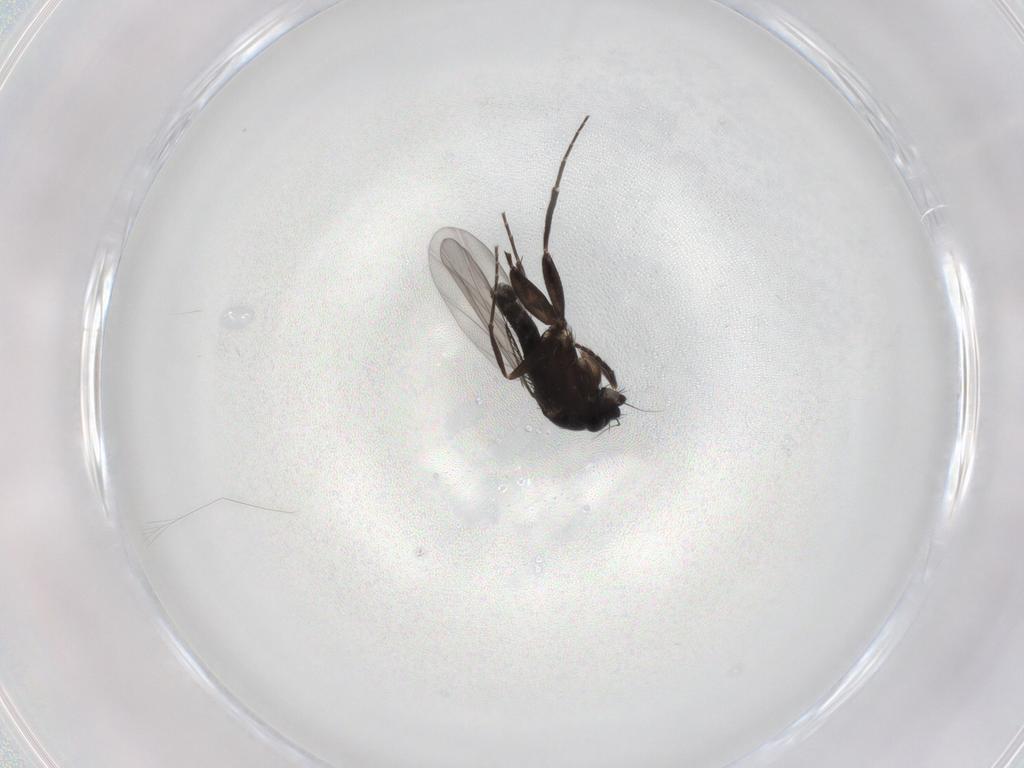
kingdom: Animalia
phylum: Arthropoda
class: Insecta
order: Diptera
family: Phoridae
